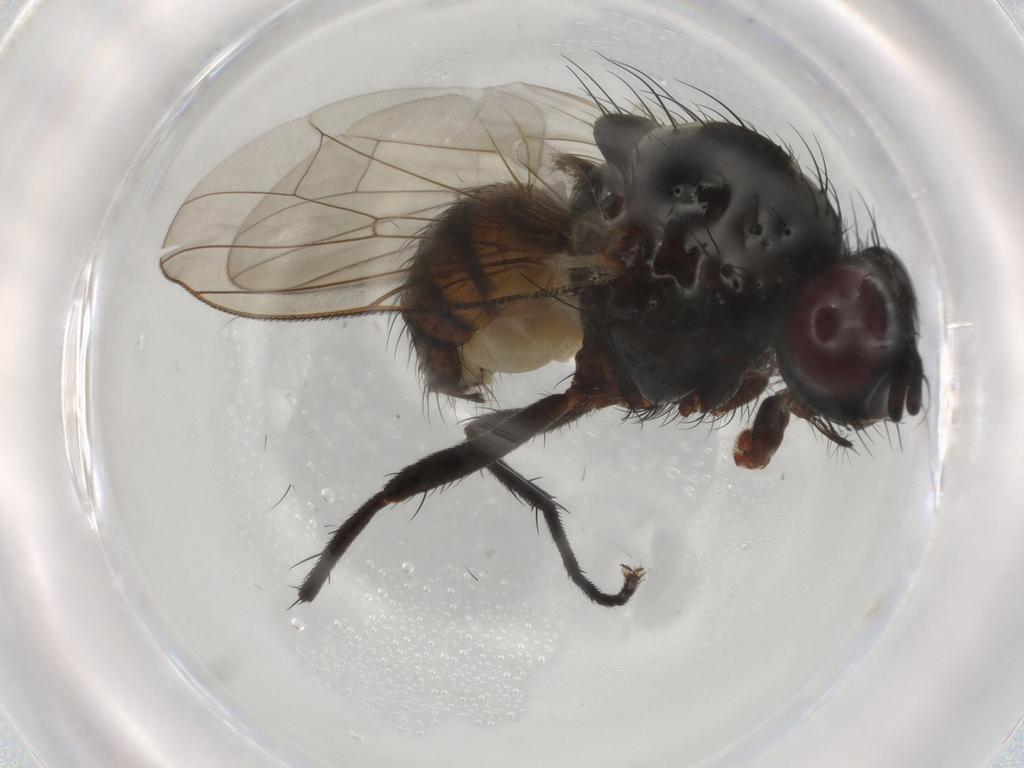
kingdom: Animalia
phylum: Arthropoda
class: Insecta
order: Diptera
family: Anthomyiidae
